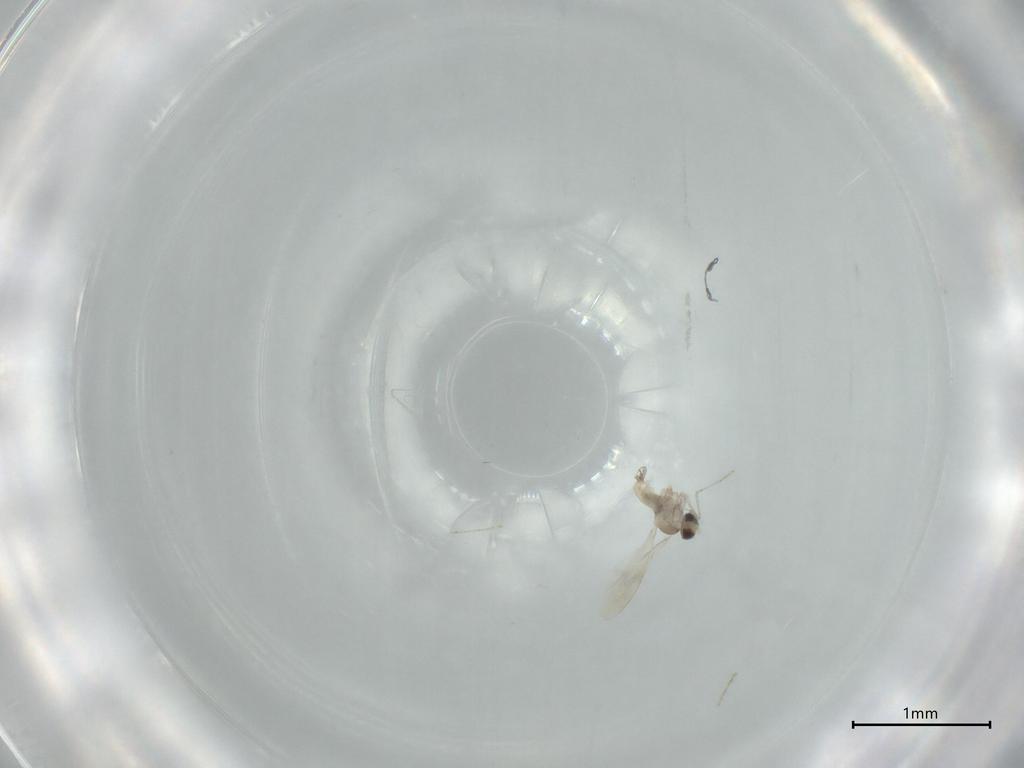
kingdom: Animalia
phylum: Arthropoda
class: Insecta
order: Diptera
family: Cecidomyiidae
